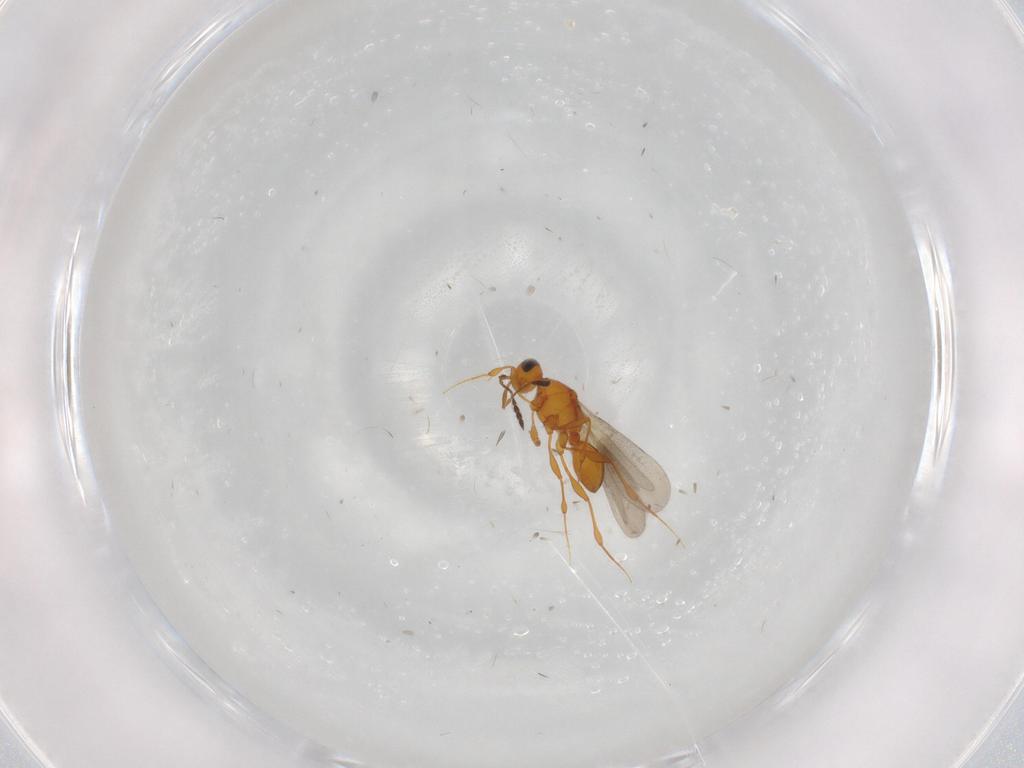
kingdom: Animalia
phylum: Arthropoda
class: Insecta
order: Hymenoptera
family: Platygastridae
